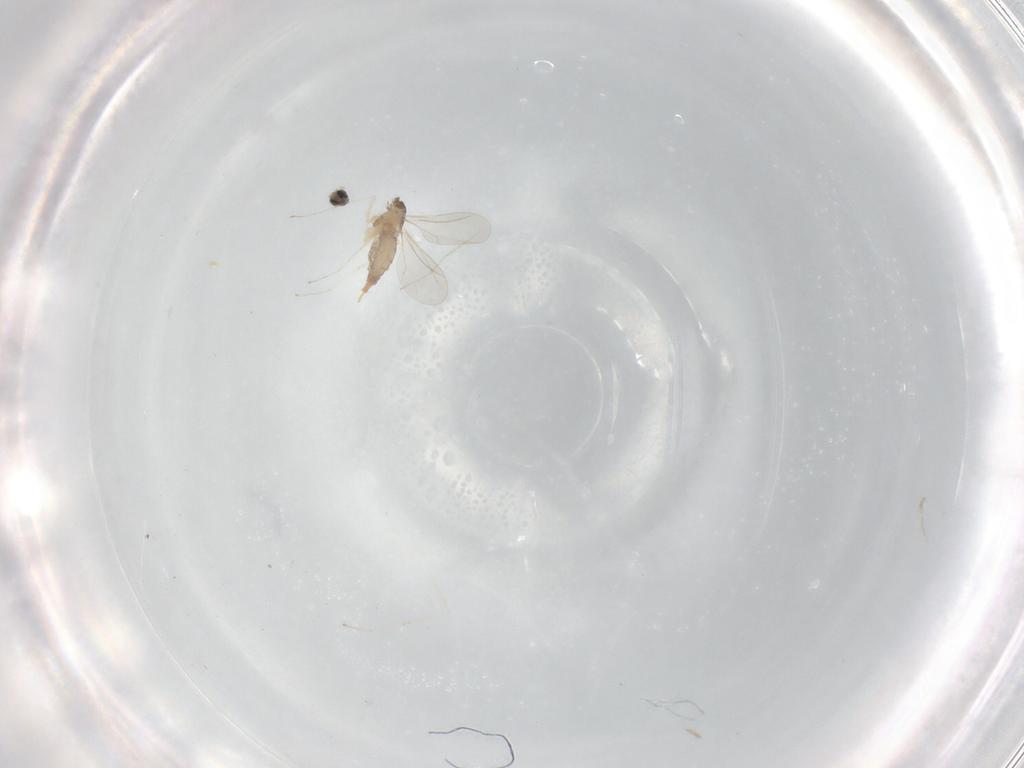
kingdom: Animalia
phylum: Arthropoda
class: Insecta
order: Diptera
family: Cecidomyiidae
